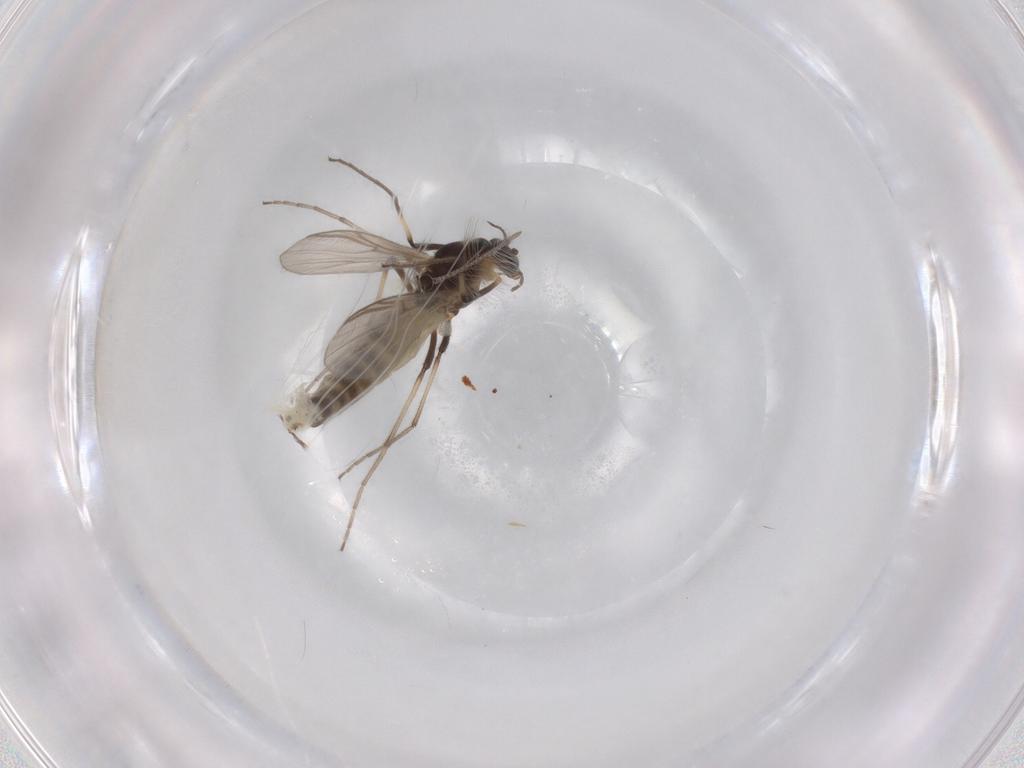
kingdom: Animalia
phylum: Arthropoda
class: Insecta
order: Diptera
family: Chironomidae
